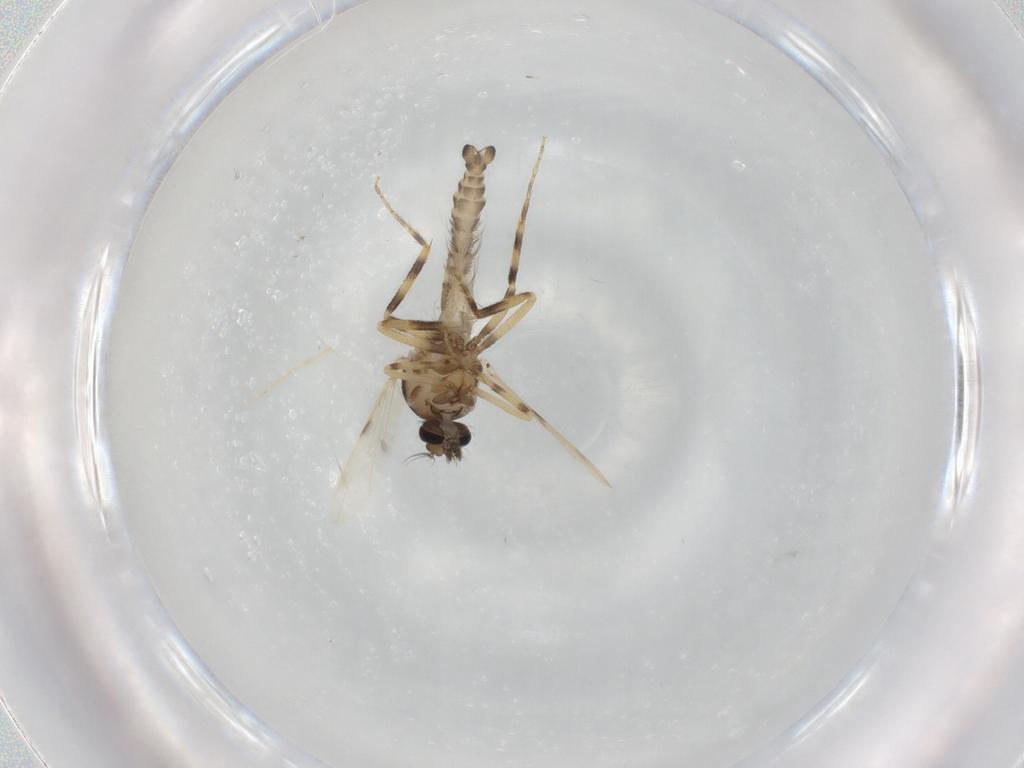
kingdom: Animalia
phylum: Arthropoda
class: Insecta
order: Diptera
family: Ceratopogonidae
